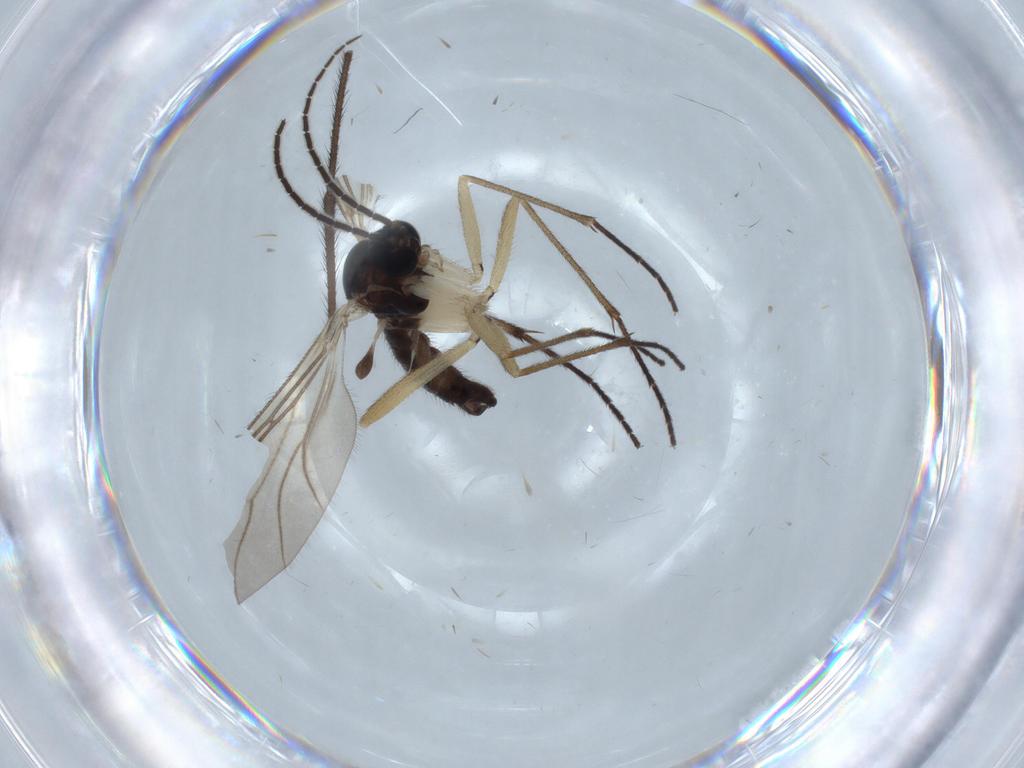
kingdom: Animalia
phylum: Arthropoda
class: Insecta
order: Diptera
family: Sciaridae
